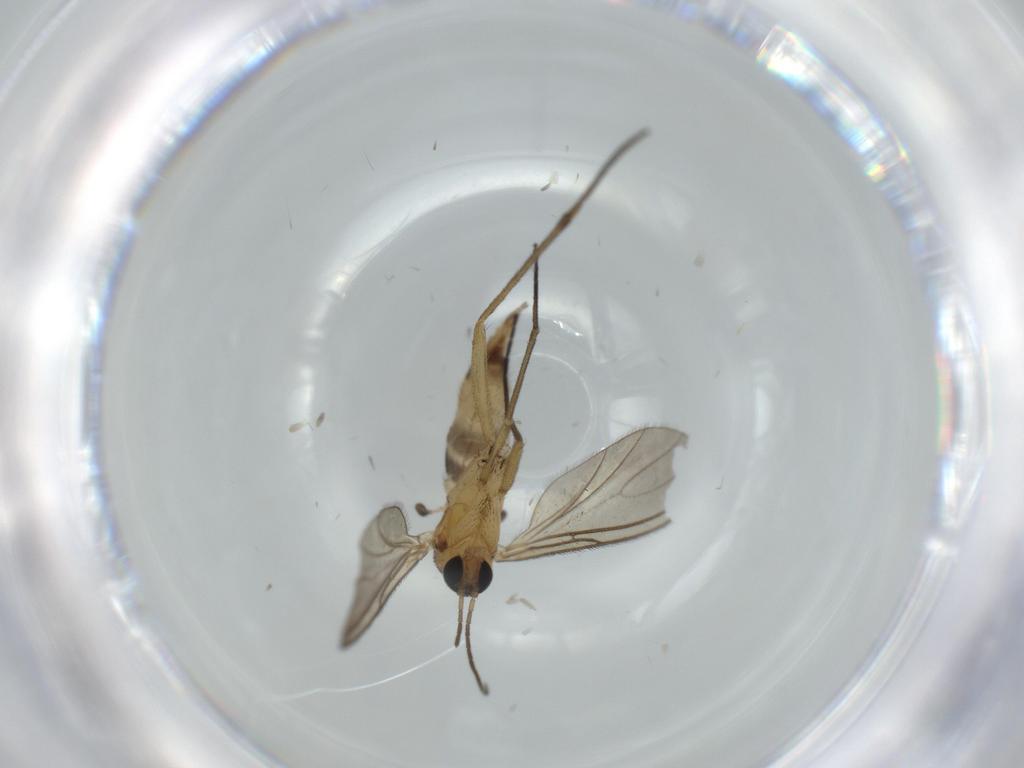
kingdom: Animalia
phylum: Arthropoda
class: Insecta
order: Diptera
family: Sciaridae
